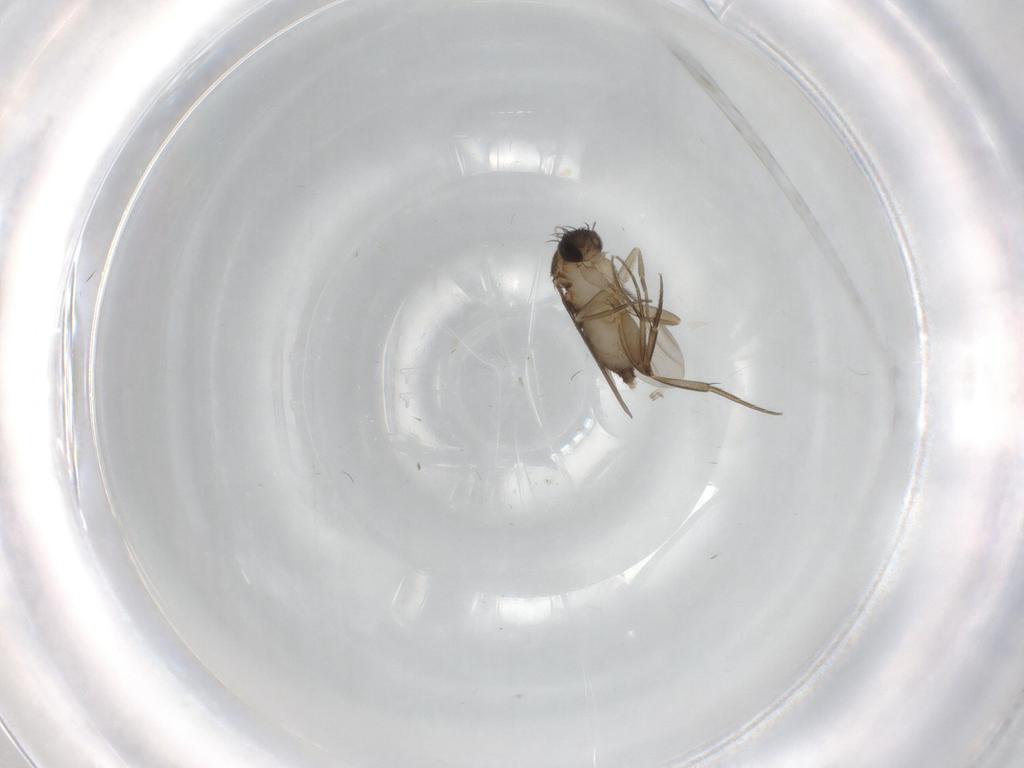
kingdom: Animalia
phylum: Arthropoda
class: Insecta
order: Diptera
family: Phoridae
